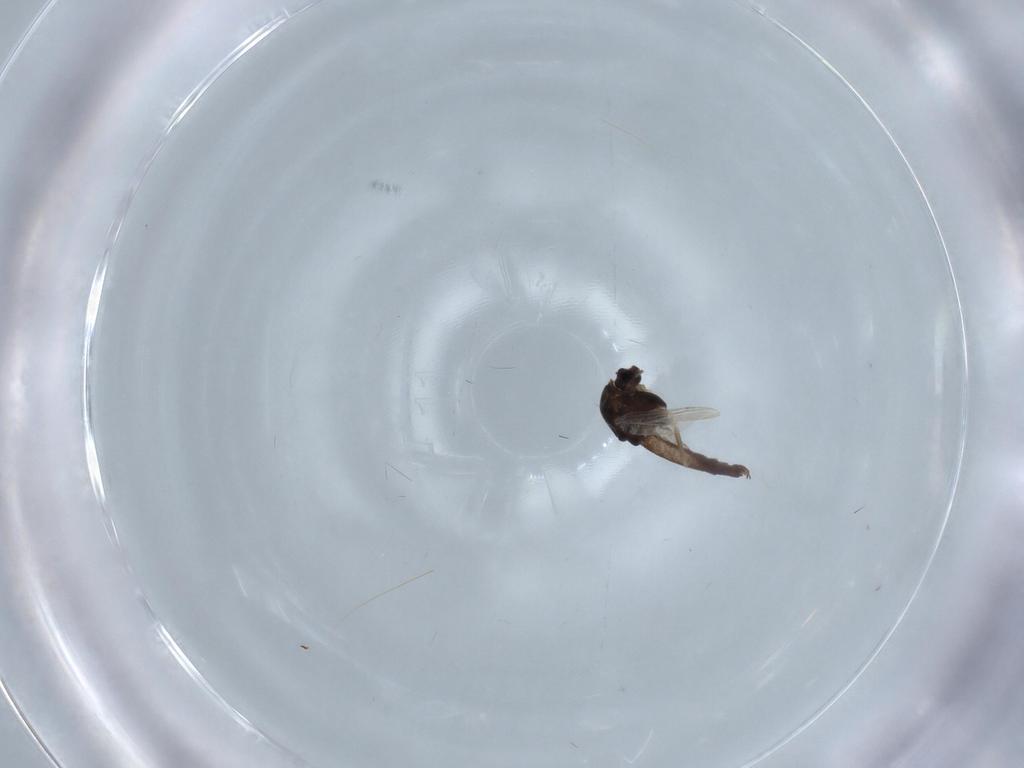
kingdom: Animalia
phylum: Arthropoda
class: Insecta
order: Diptera
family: Chironomidae
